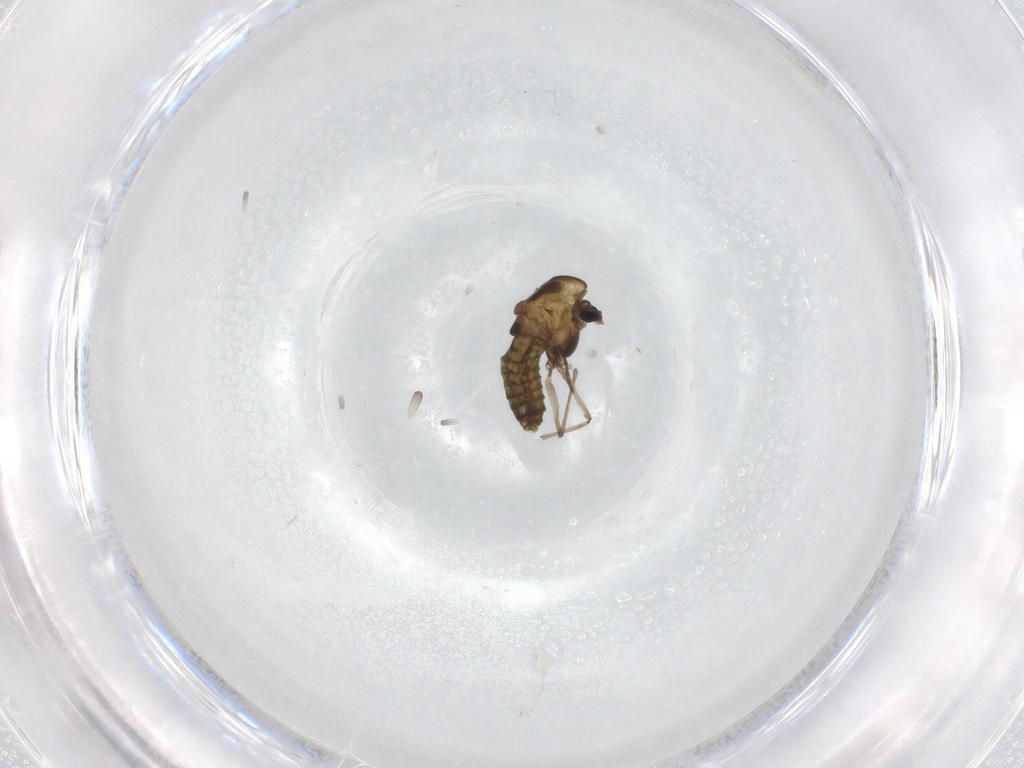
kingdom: Animalia
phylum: Arthropoda
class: Insecta
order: Diptera
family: Chironomidae
